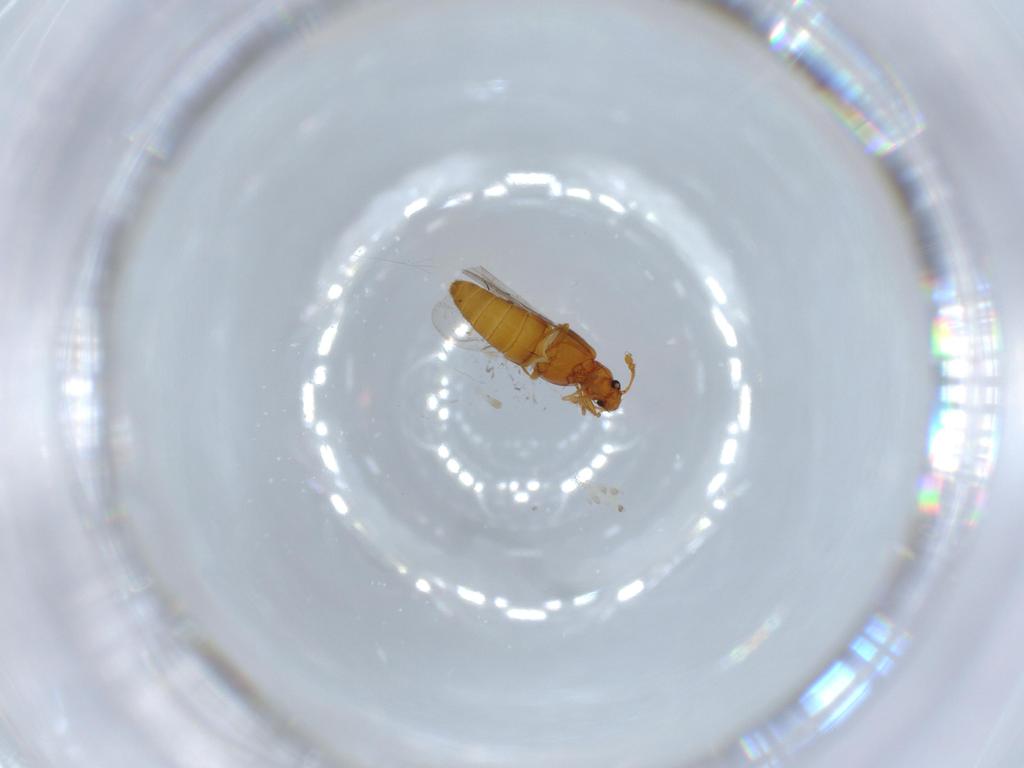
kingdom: Animalia
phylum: Arthropoda
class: Insecta
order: Coleoptera
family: Staphylinidae
